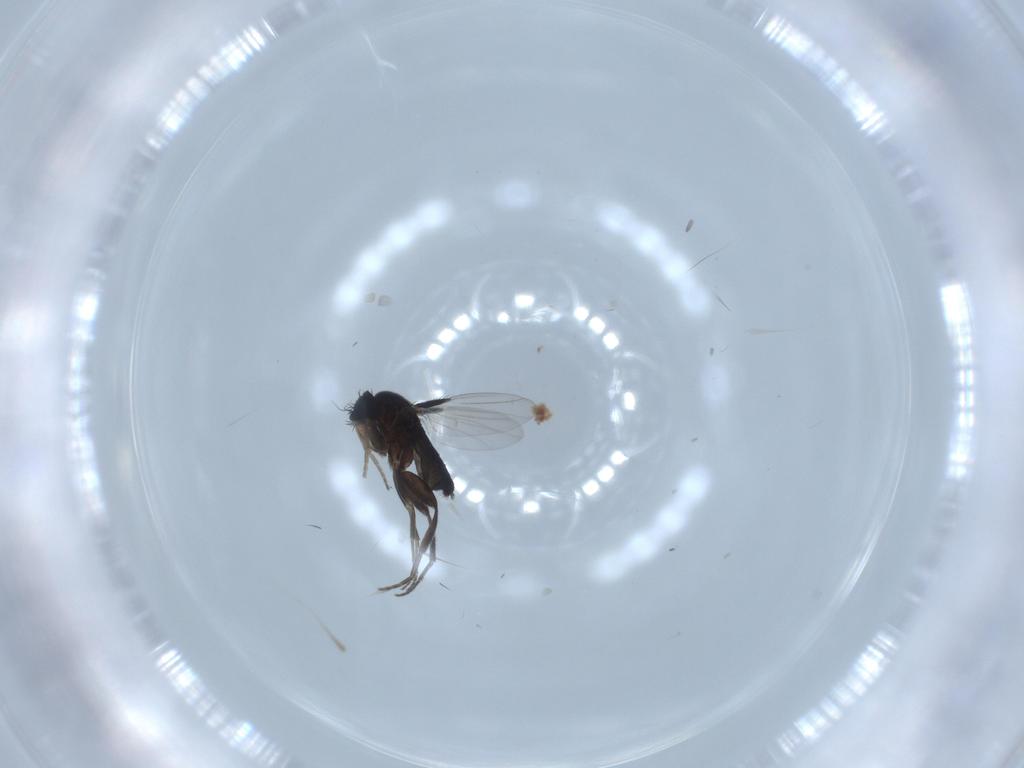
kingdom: Animalia
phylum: Arthropoda
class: Insecta
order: Diptera
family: Phoridae
